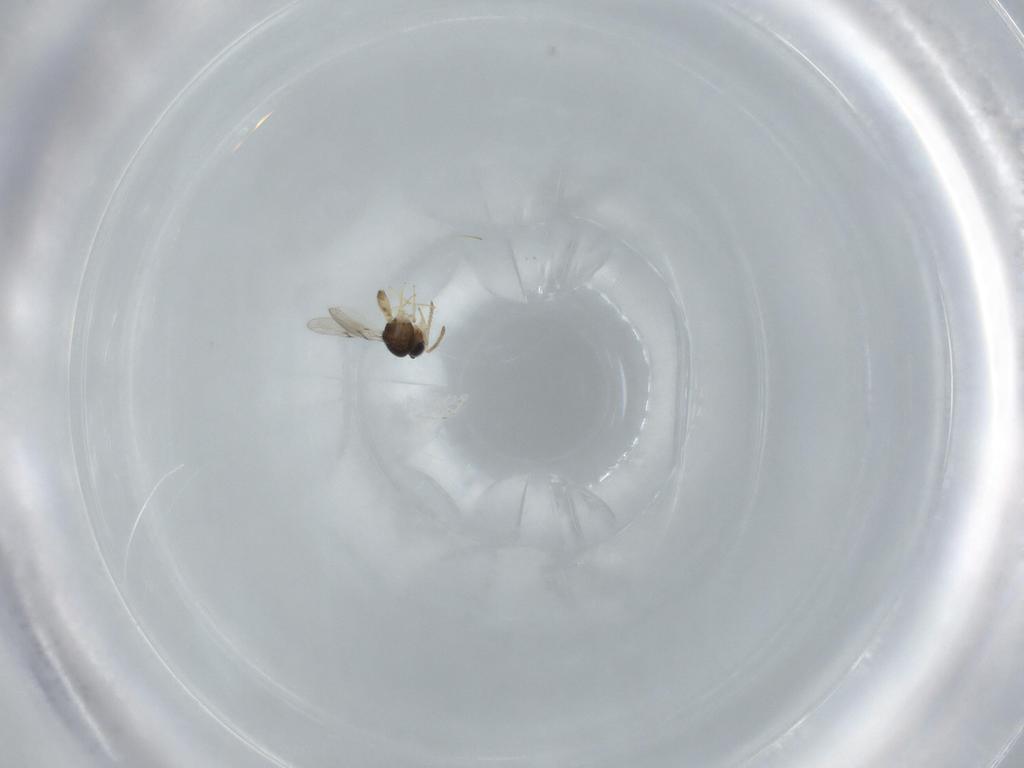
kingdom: Animalia
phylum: Arthropoda
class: Insecta
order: Hymenoptera
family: Scelionidae
